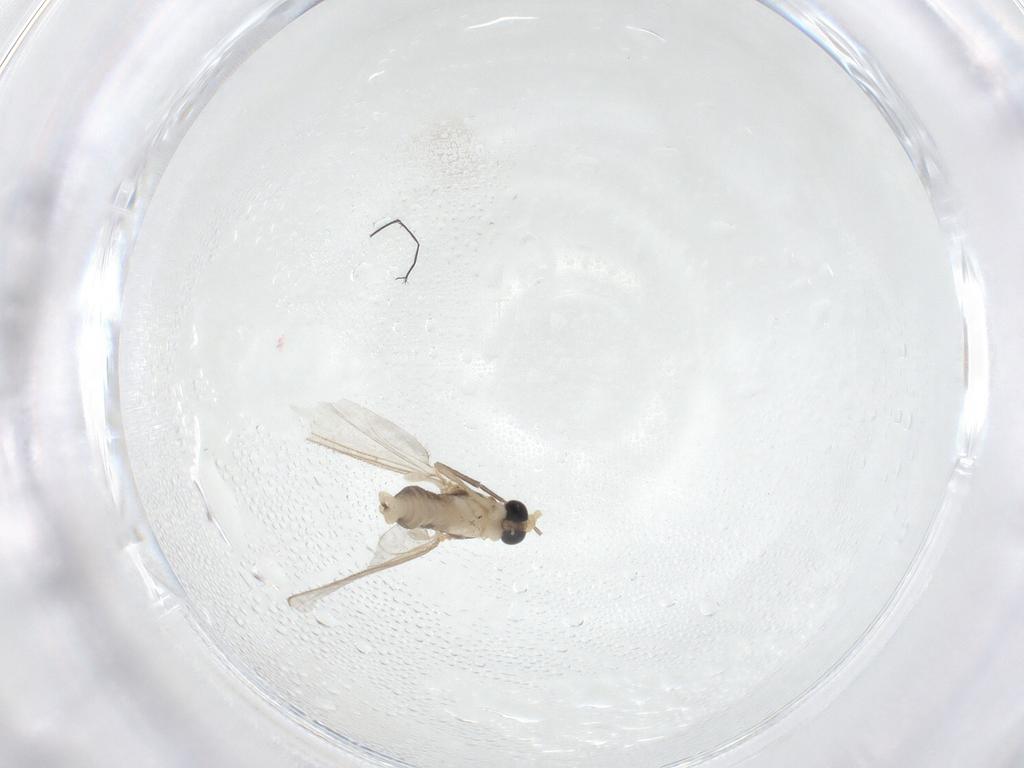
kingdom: Animalia
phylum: Arthropoda
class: Insecta
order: Diptera
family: Sciaridae
